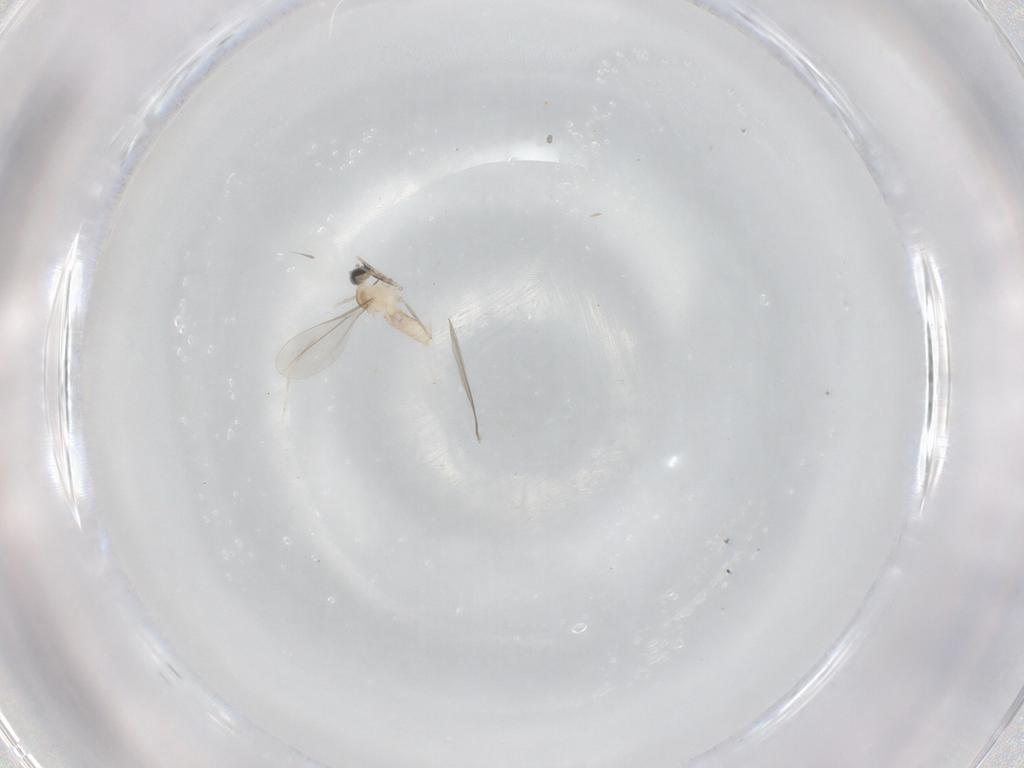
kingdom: Animalia
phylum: Arthropoda
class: Insecta
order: Diptera
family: Cecidomyiidae
